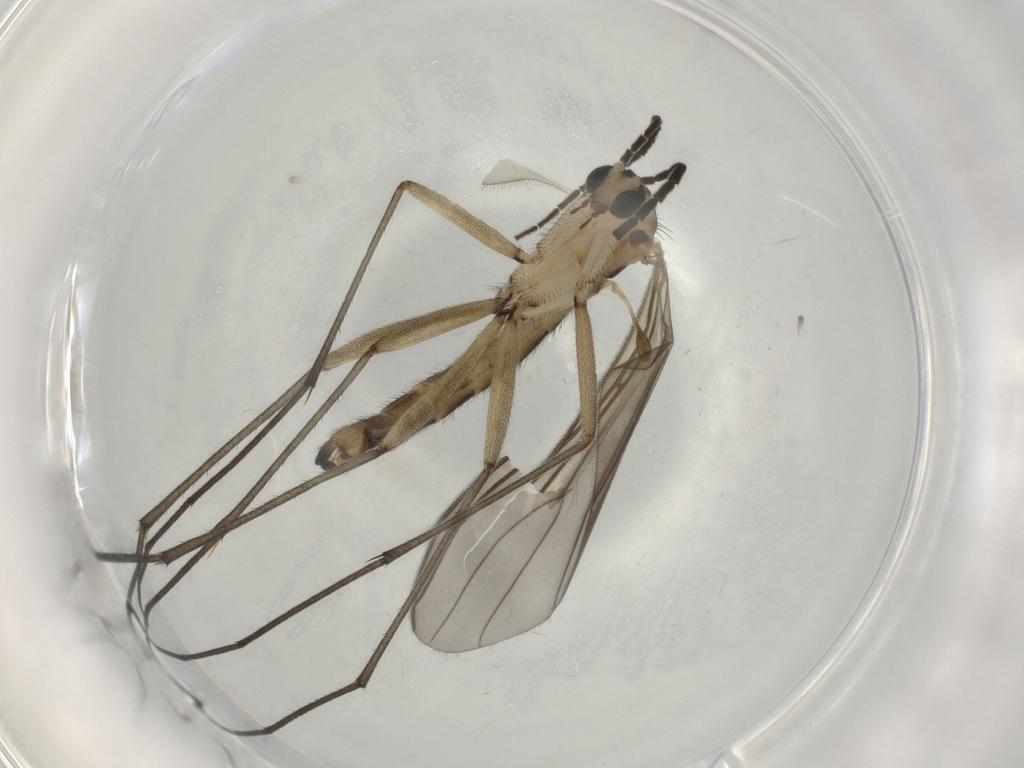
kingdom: Animalia
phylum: Arthropoda
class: Insecta
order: Diptera
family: Sciaridae
